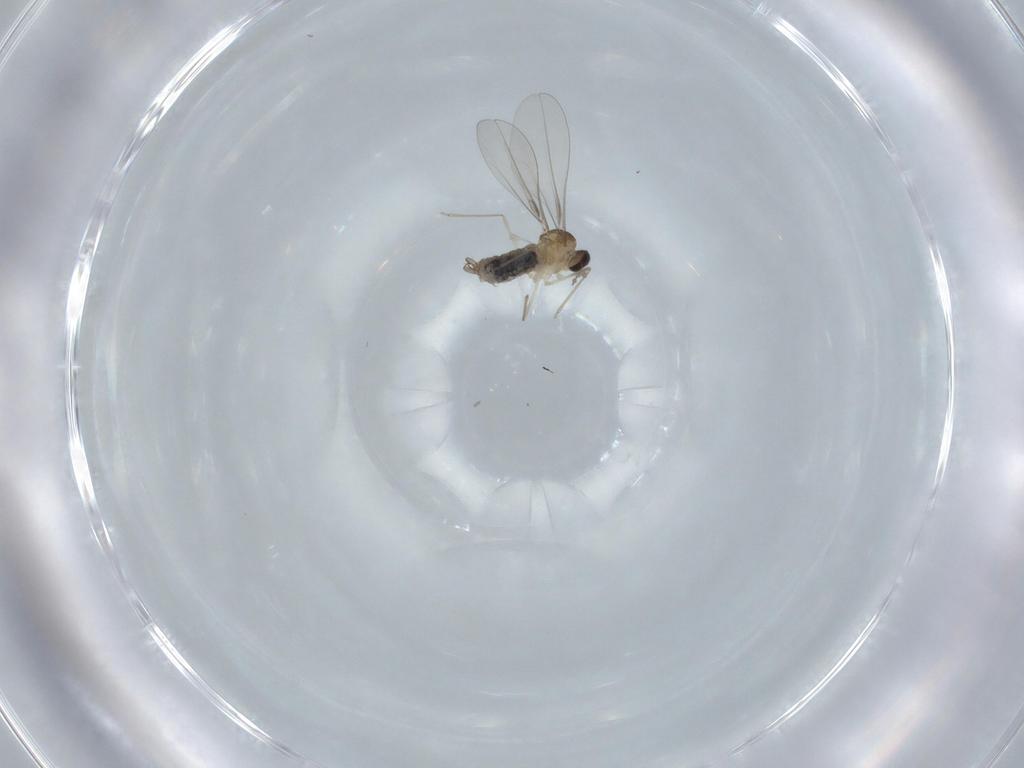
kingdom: Animalia
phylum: Arthropoda
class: Insecta
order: Diptera
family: Cecidomyiidae
